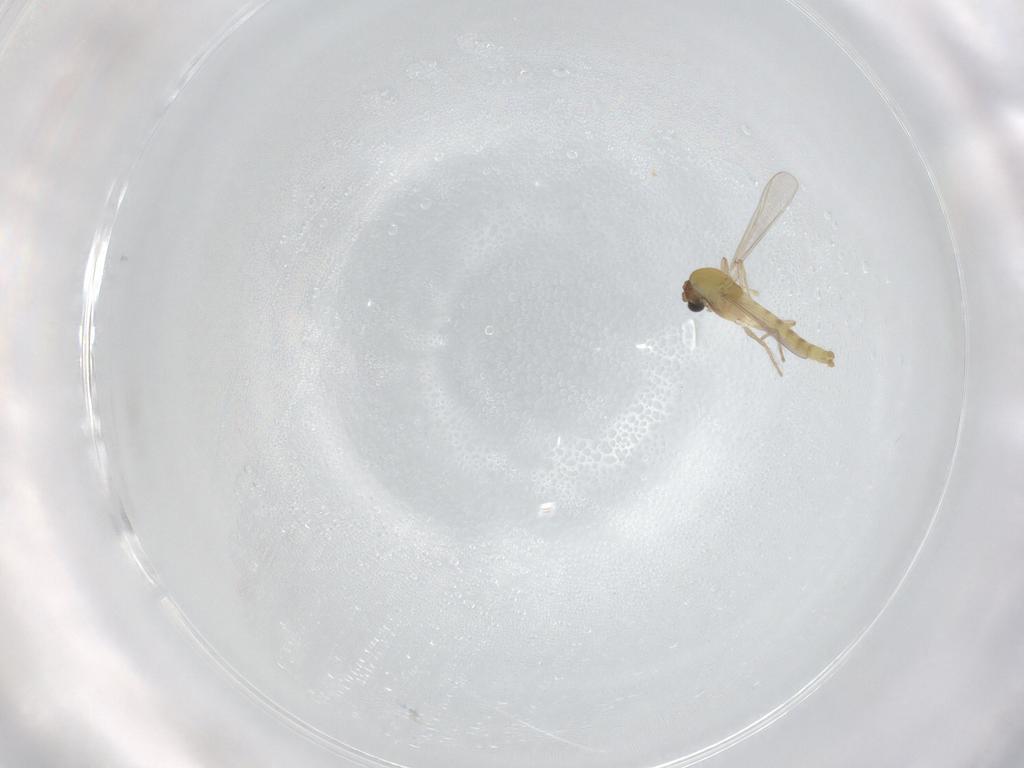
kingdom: Animalia
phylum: Arthropoda
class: Insecta
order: Diptera
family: Chironomidae
